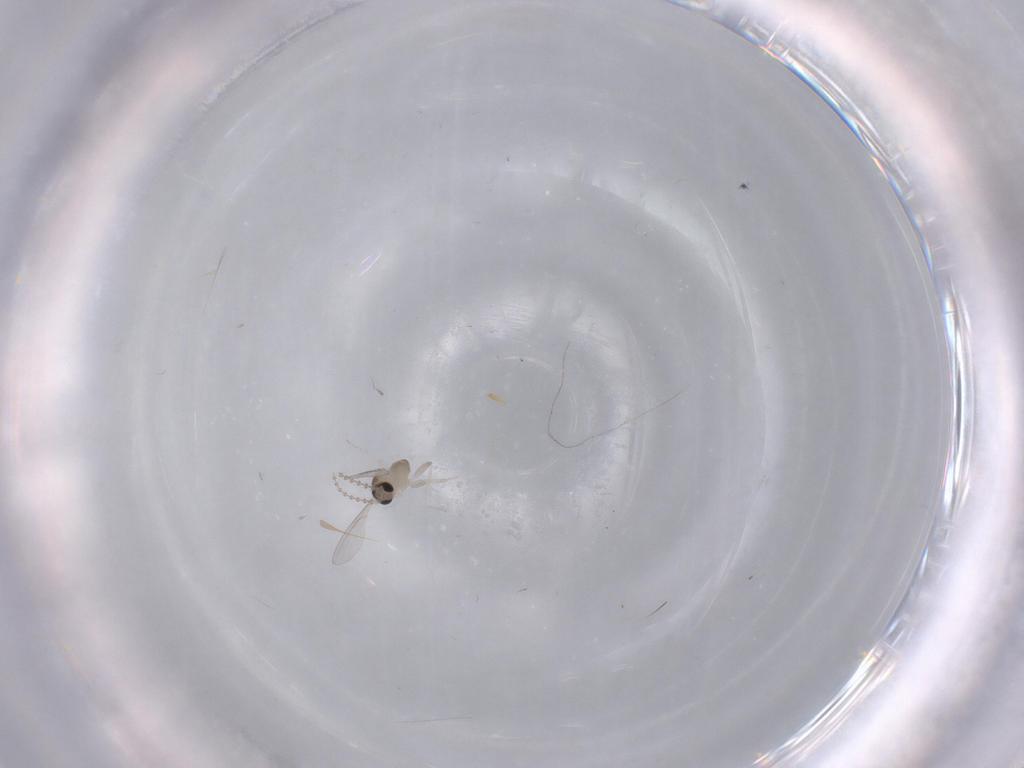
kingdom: Animalia
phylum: Arthropoda
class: Insecta
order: Diptera
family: Cecidomyiidae
